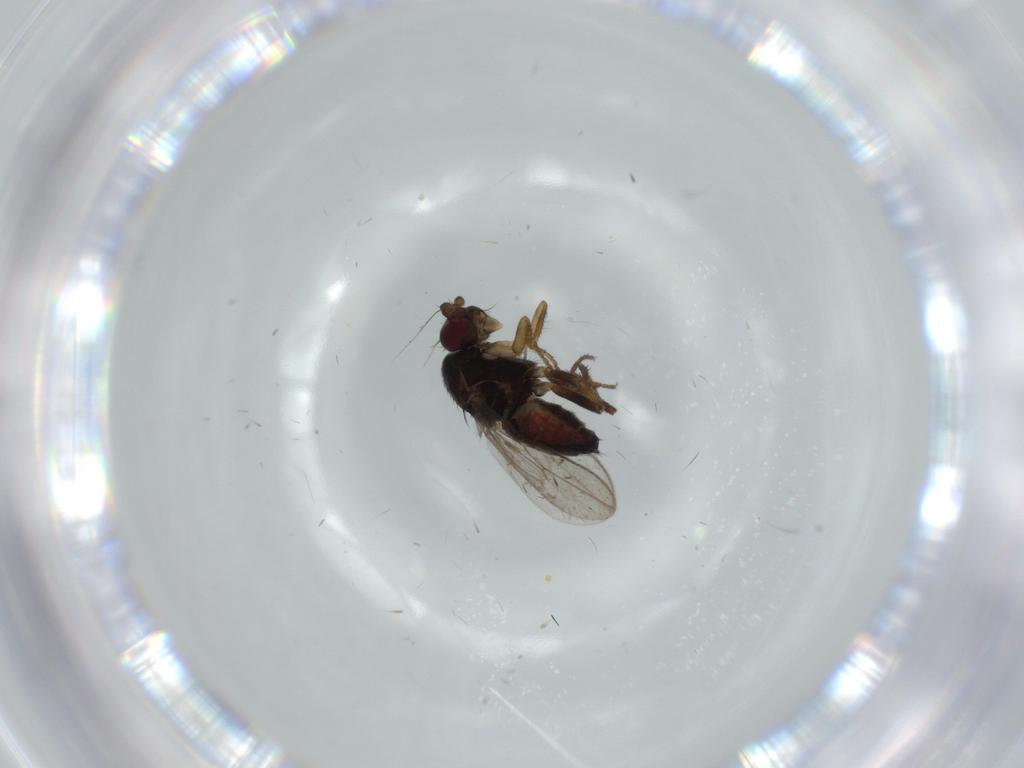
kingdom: Animalia
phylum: Arthropoda
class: Insecta
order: Diptera
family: Sphaeroceridae
